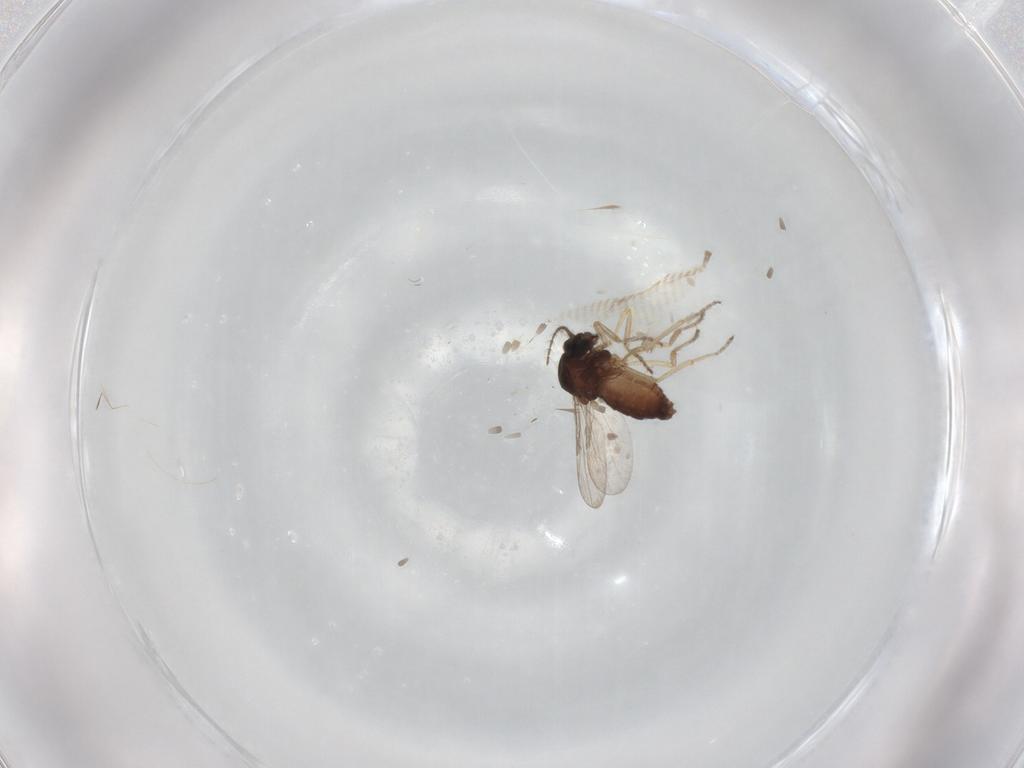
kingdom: Animalia
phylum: Arthropoda
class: Insecta
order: Diptera
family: Ceratopogonidae
